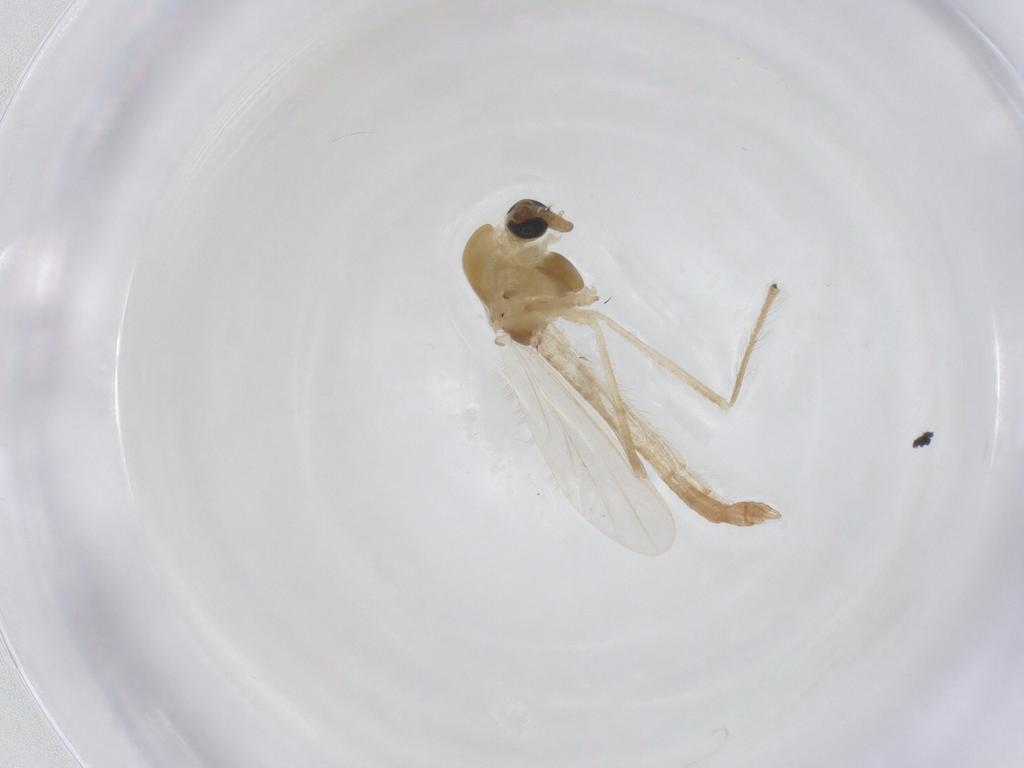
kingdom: Animalia
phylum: Arthropoda
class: Insecta
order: Diptera
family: Chironomidae
